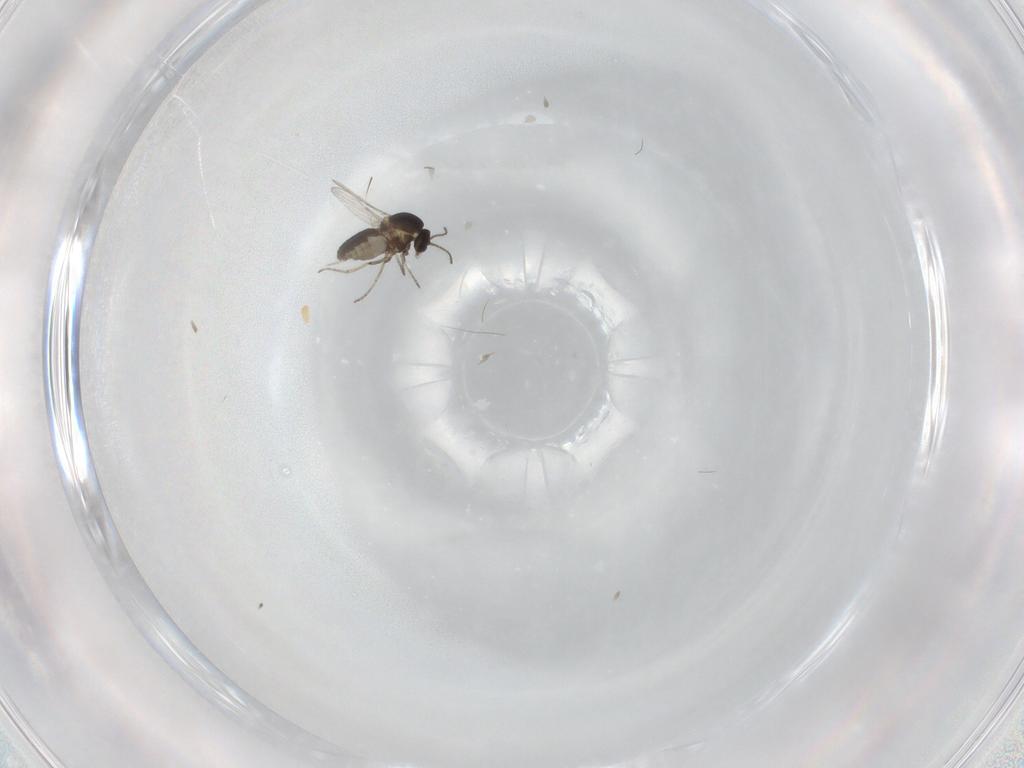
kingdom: Animalia
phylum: Arthropoda
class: Insecta
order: Diptera
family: Ceratopogonidae
